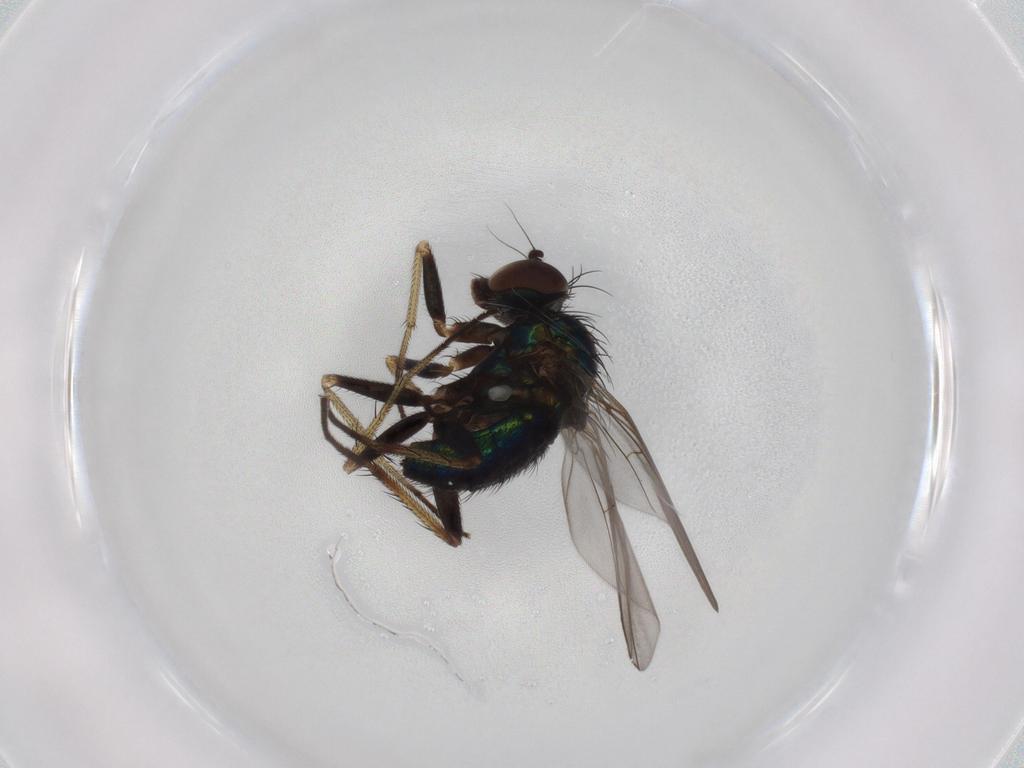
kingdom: Animalia
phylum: Arthropoda
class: Insecta
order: Diptera
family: Dolichopodidae
